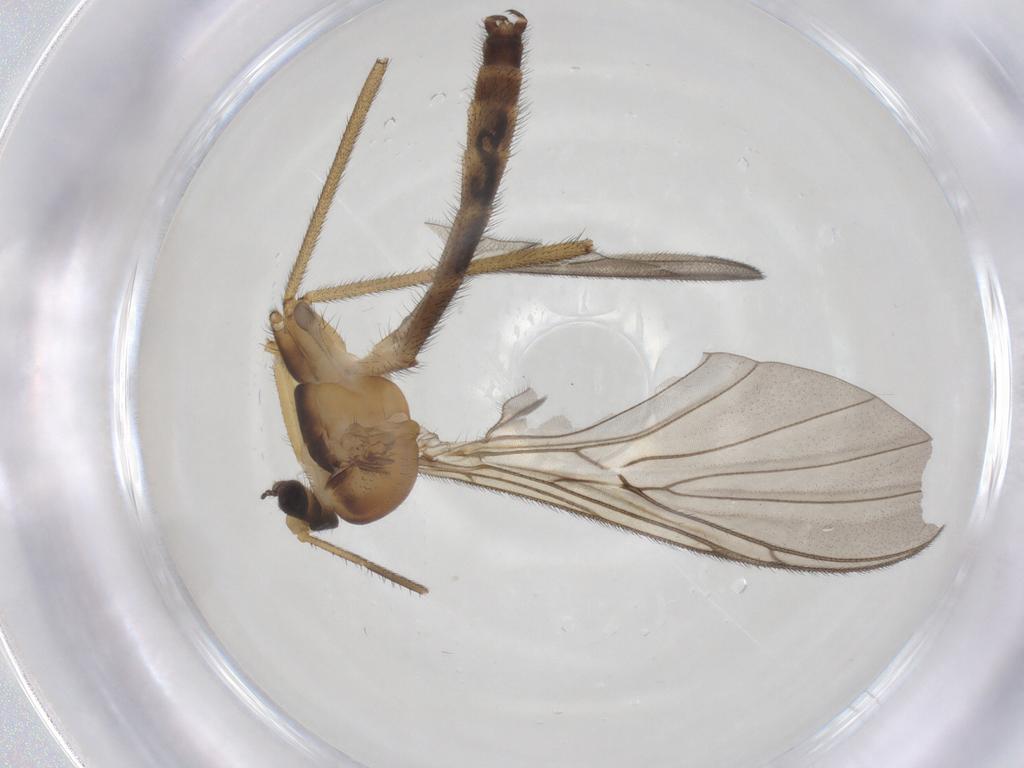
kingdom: Animalia
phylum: Arthropoda
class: Insecta
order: Diptera
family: Keroplatidae
